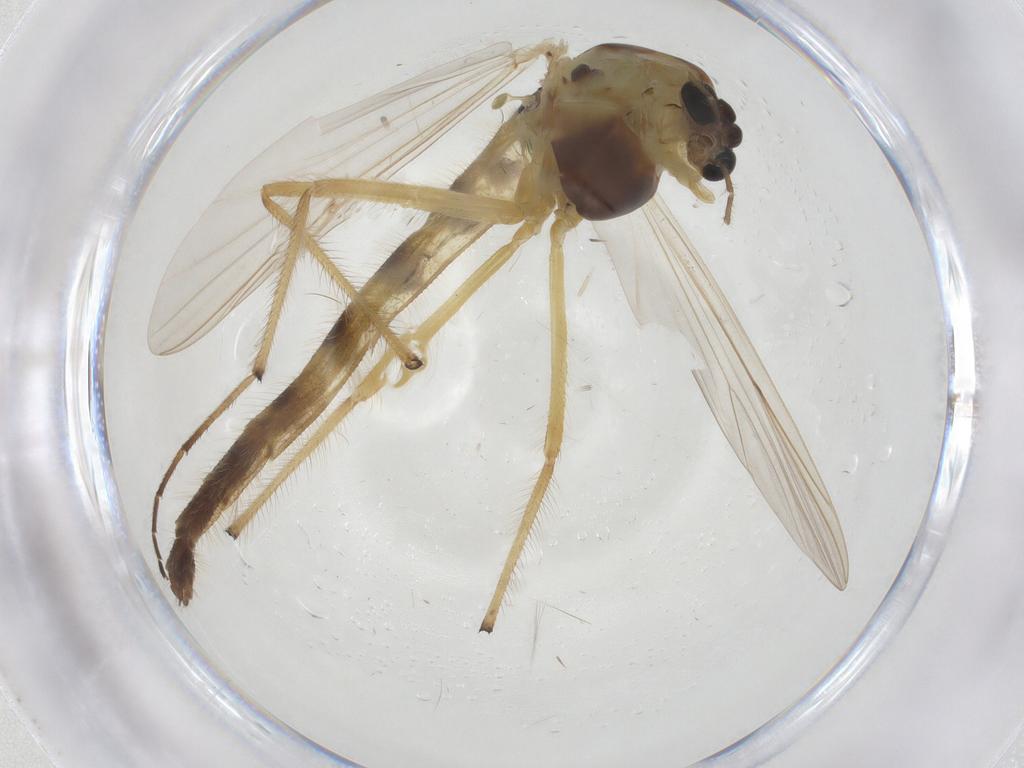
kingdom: Animalia
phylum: Arthropoda
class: Insecta
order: Diptera
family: Chironomidae
